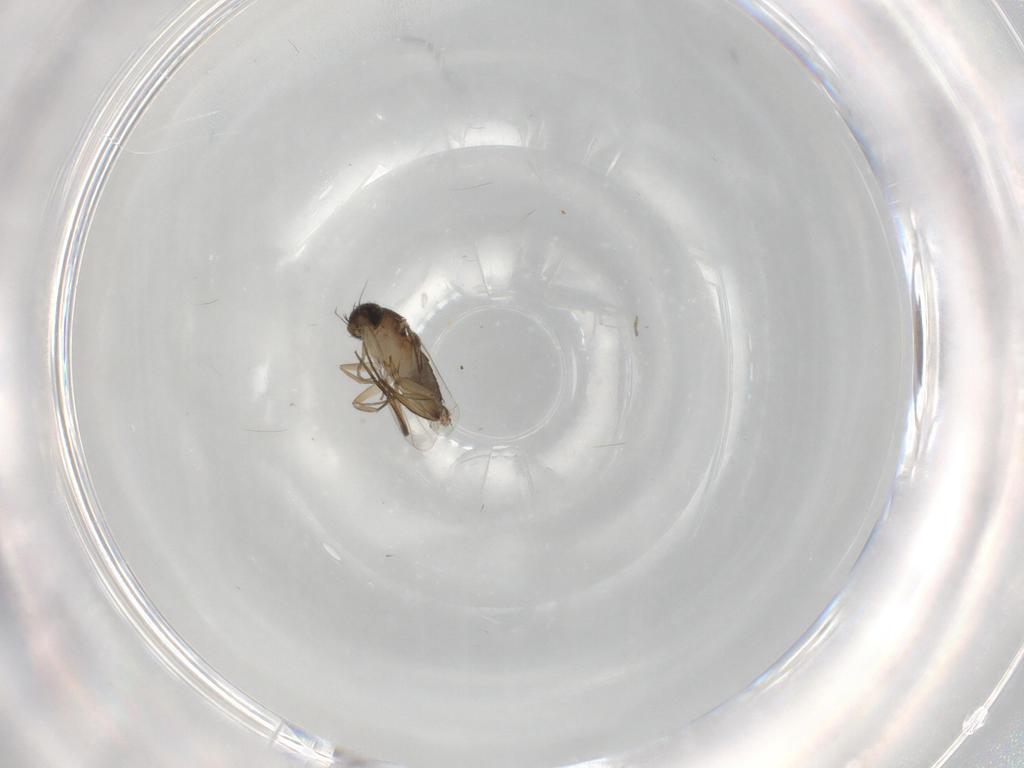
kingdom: Animalia
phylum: Arthropoda
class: Insecta
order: Diptera
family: Phoridae
